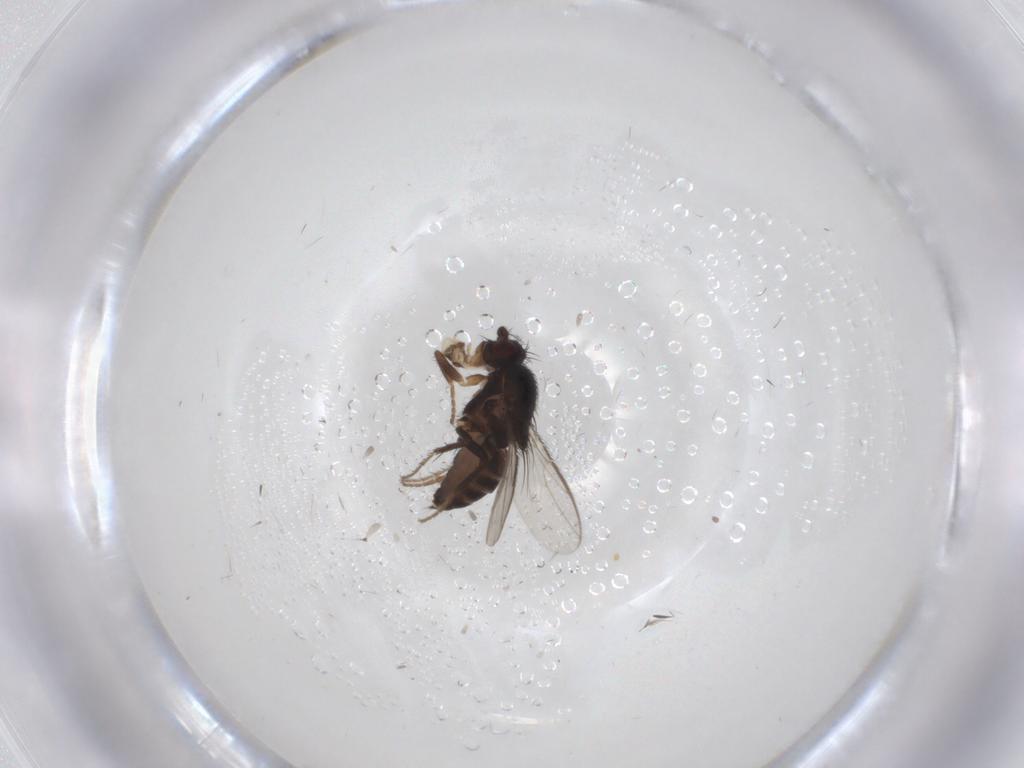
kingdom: Animalia
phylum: Arthropoda
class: Insecta
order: Diptera
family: Sphaeroceridae
